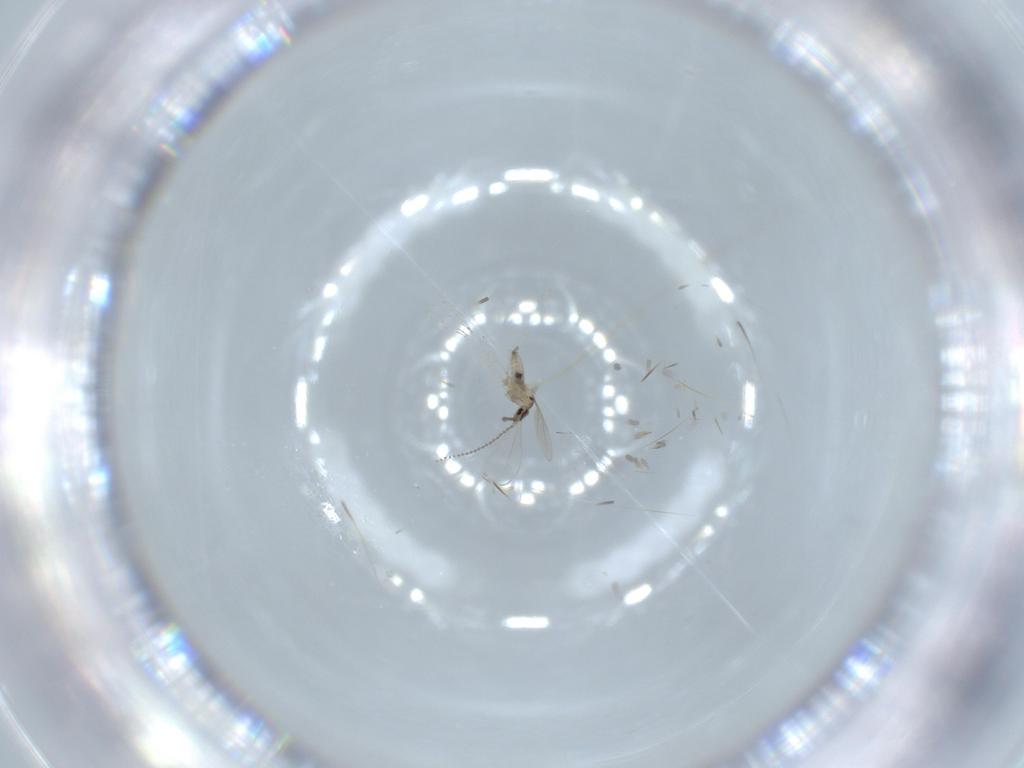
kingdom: Animalia
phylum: Arthropoda
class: Insecta
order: Diptera
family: Cecidomyiidae
